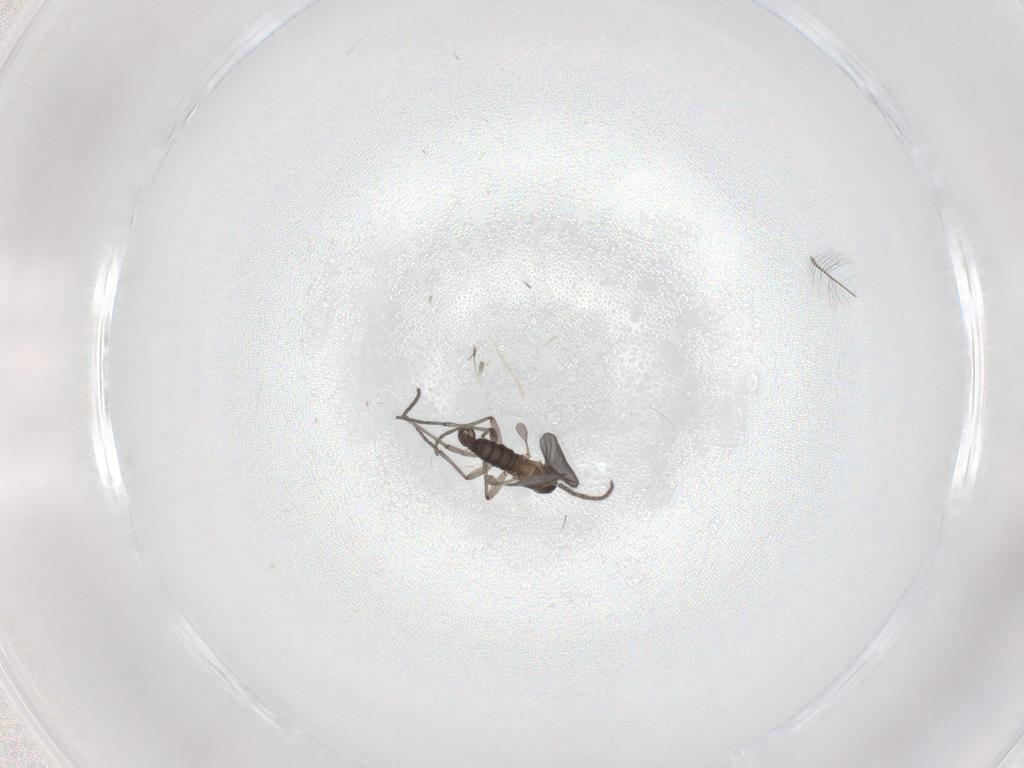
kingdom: Animalia
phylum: Arthropoda
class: Insecta
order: Diptera
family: Sciaridae
